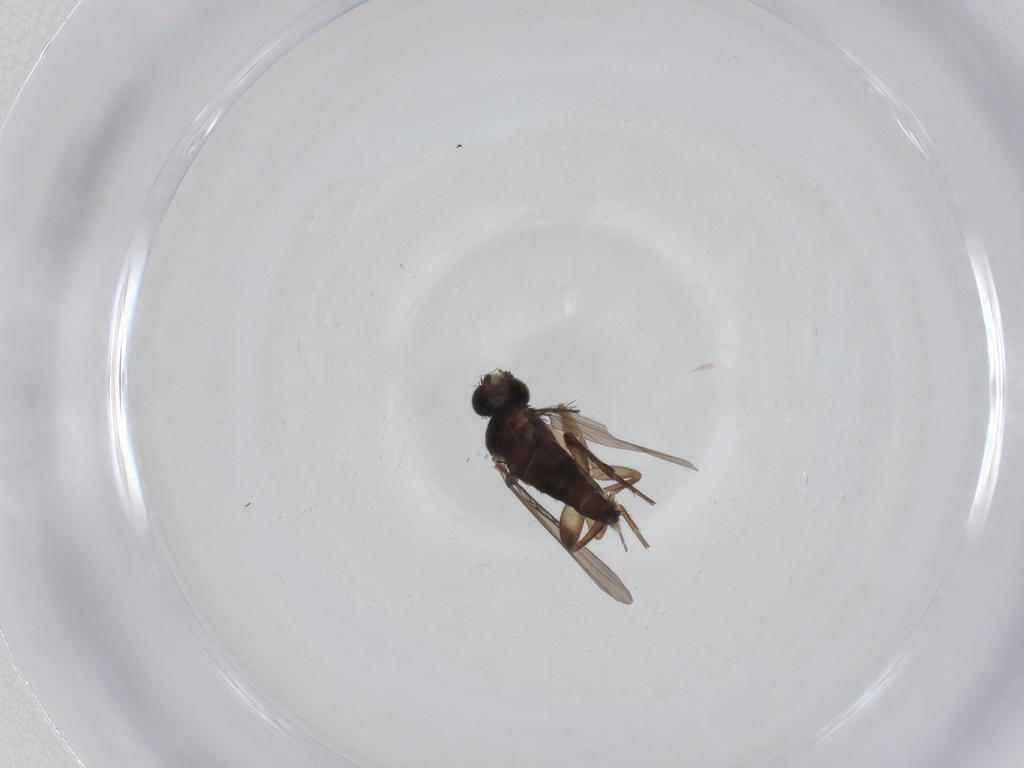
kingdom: Animalia
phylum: Arthropoda
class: Insecta
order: Diptera
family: Phoridae
